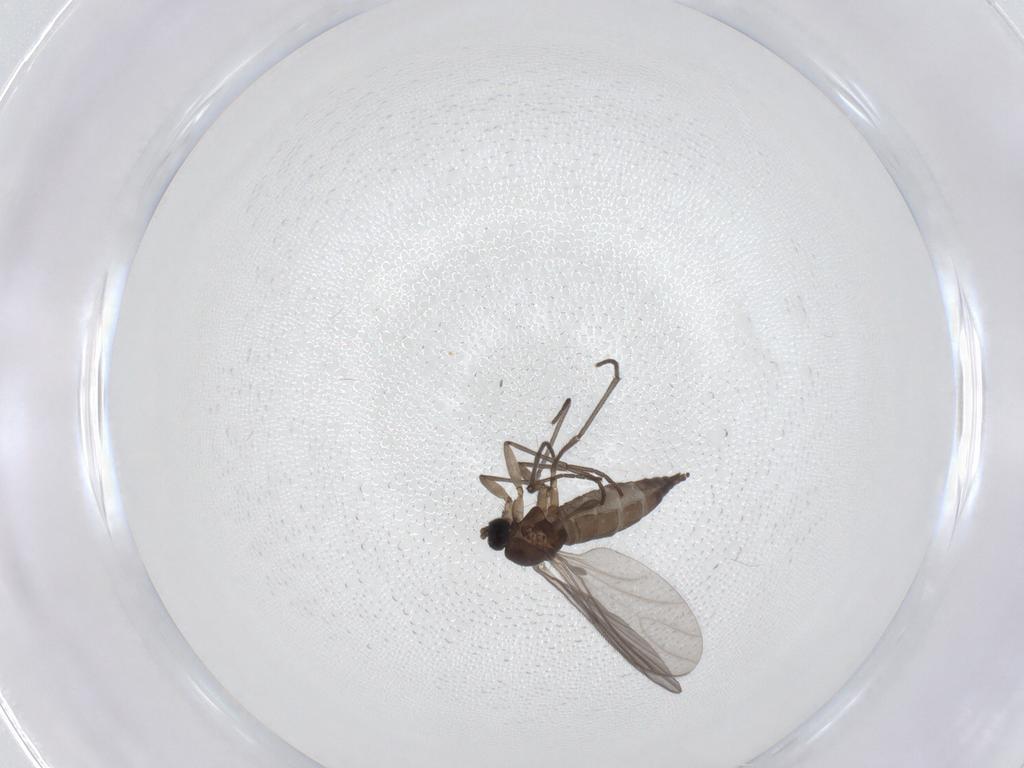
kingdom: Animalia
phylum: Arthropoda
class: Insecta
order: Diptera
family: Sciaridae
